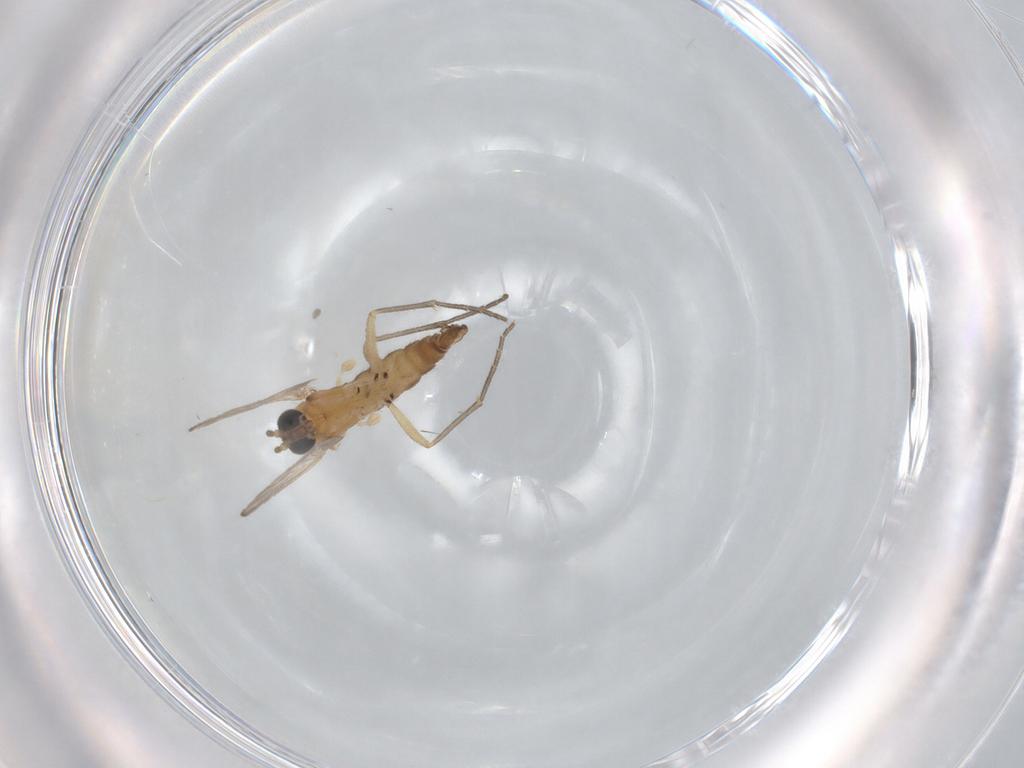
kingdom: Animalia
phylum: Arthropoda
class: Insecta
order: Diptera
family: Sciaridae
